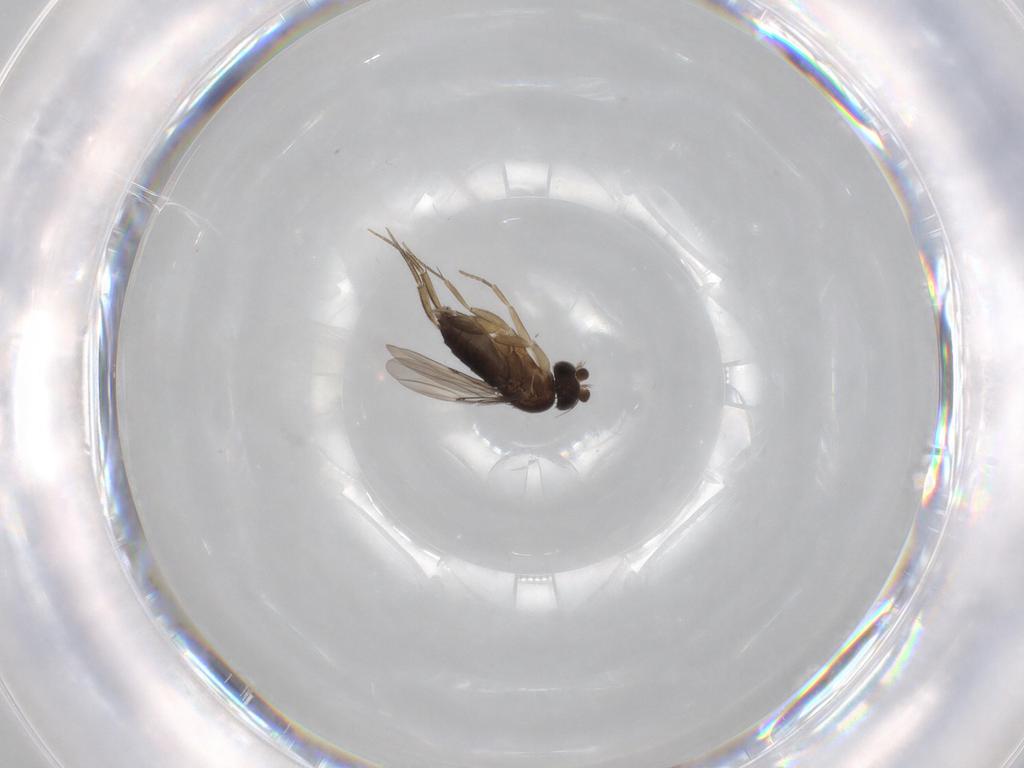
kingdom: Animalia
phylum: Arthropoda
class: Insecta
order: Diptera
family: Phoridae
